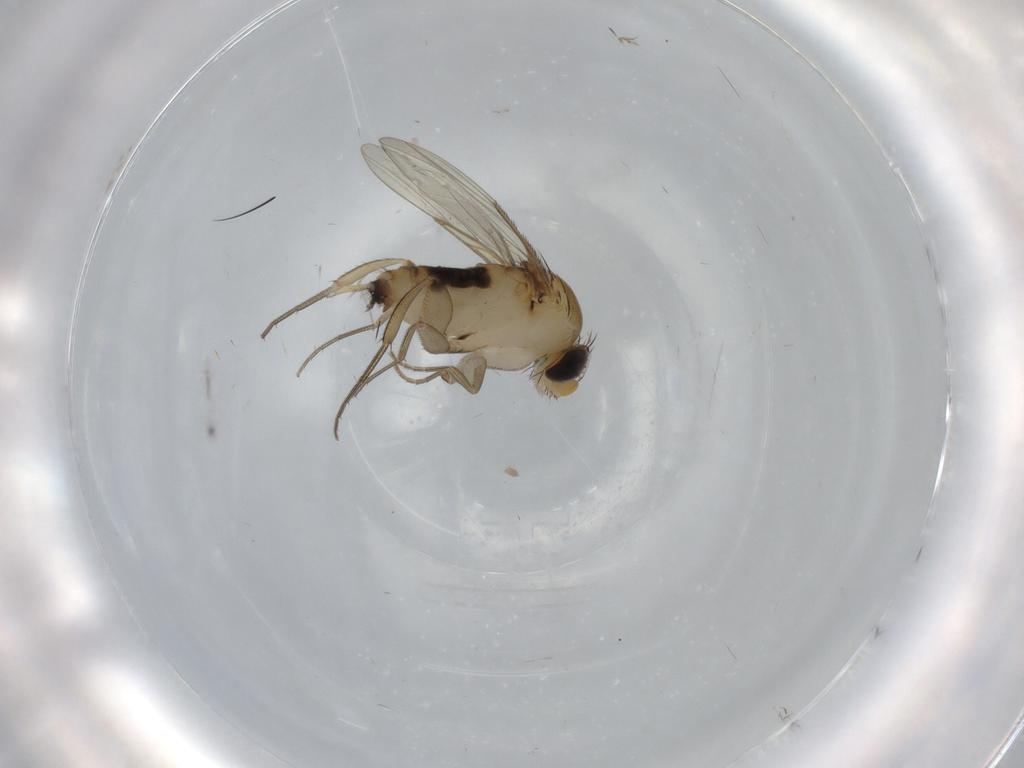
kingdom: Animalia
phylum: Arthropoda
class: Insecta
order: Diptera
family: Phoridae
